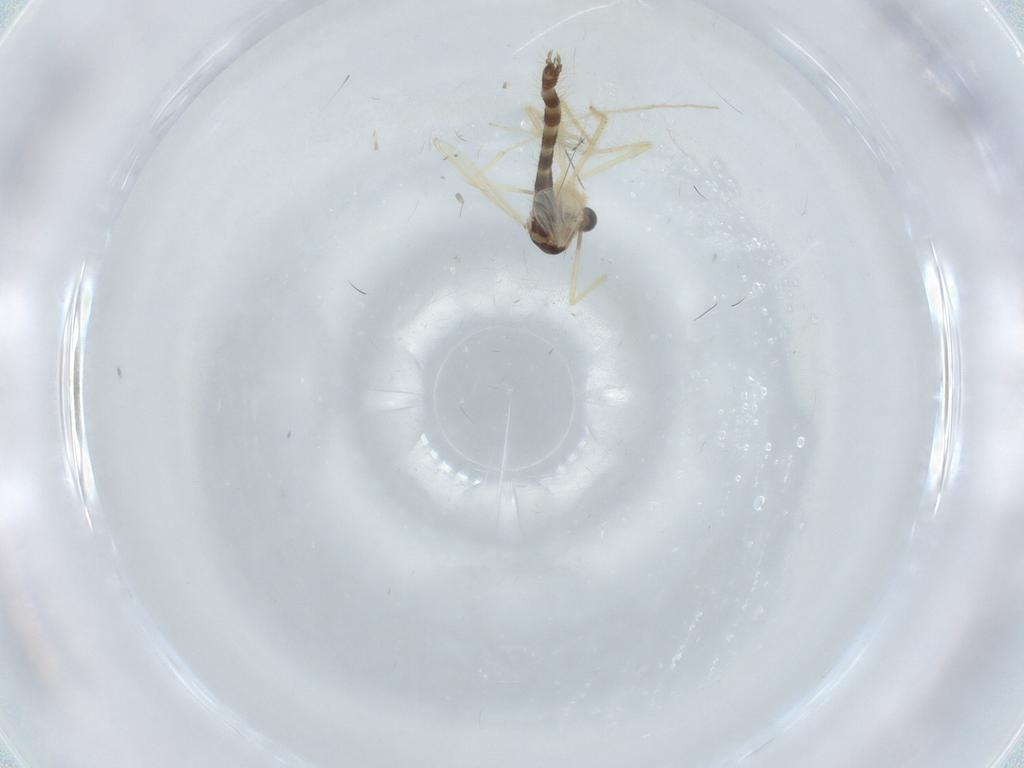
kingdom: Animalia
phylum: Arthropoda
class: Insecta
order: Diptera
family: Chironomidae
